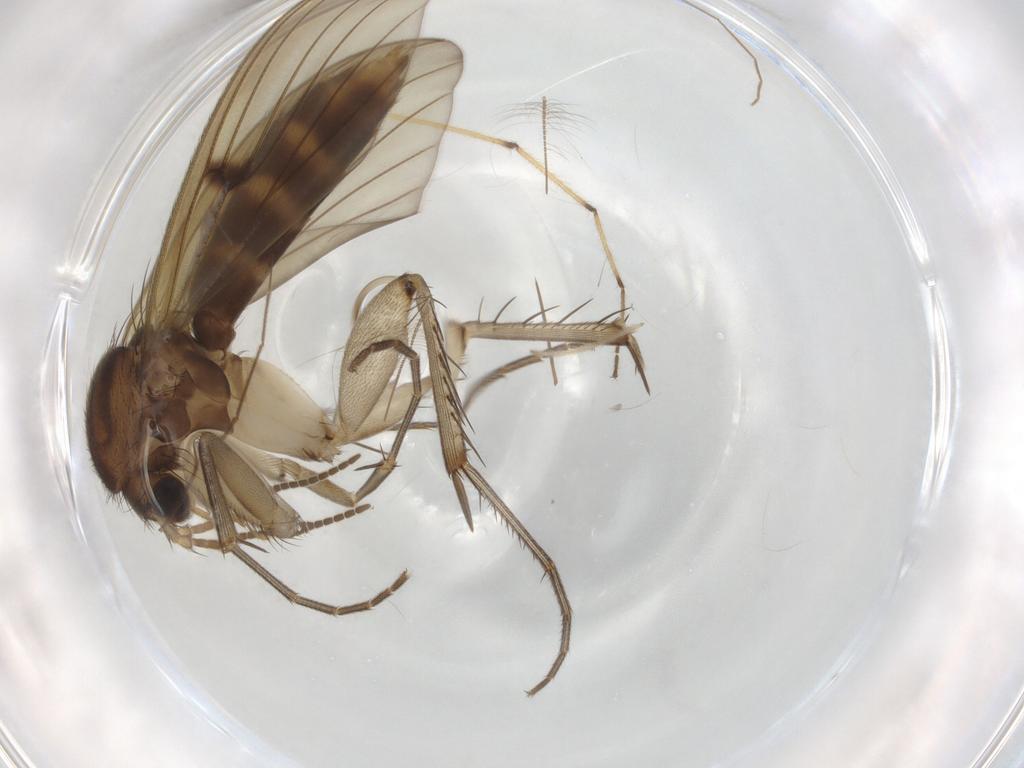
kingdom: Animalia
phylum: Arthropoda
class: Insecta
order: Diptera
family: Mycetophilidae
